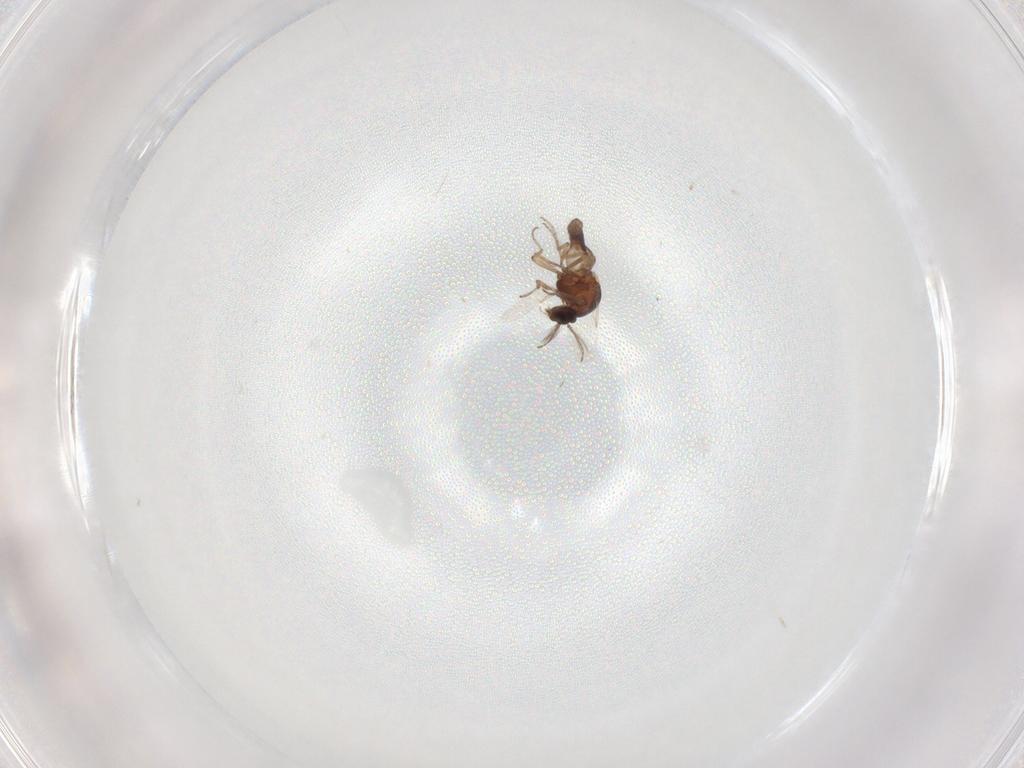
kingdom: Animalia
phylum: Arthropoda
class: Insecta
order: Diptera
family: Ceratopogonidae
